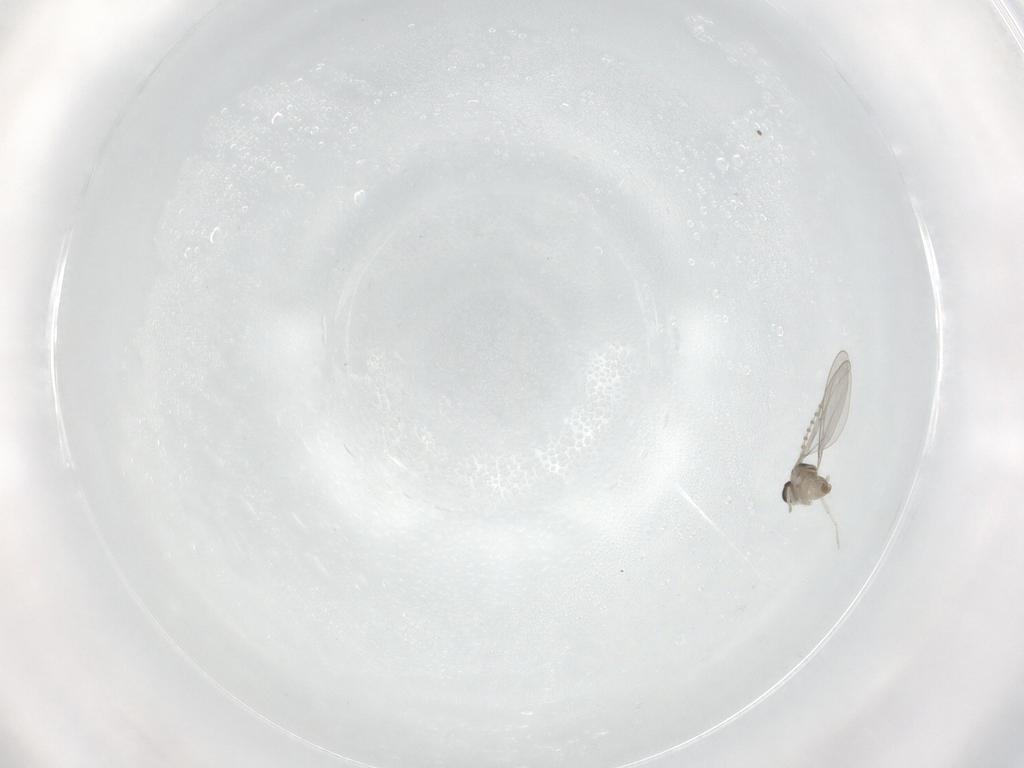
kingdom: Animalia
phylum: Arthropoda
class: Insecta
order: Diptera
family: Cecidomyiidae
